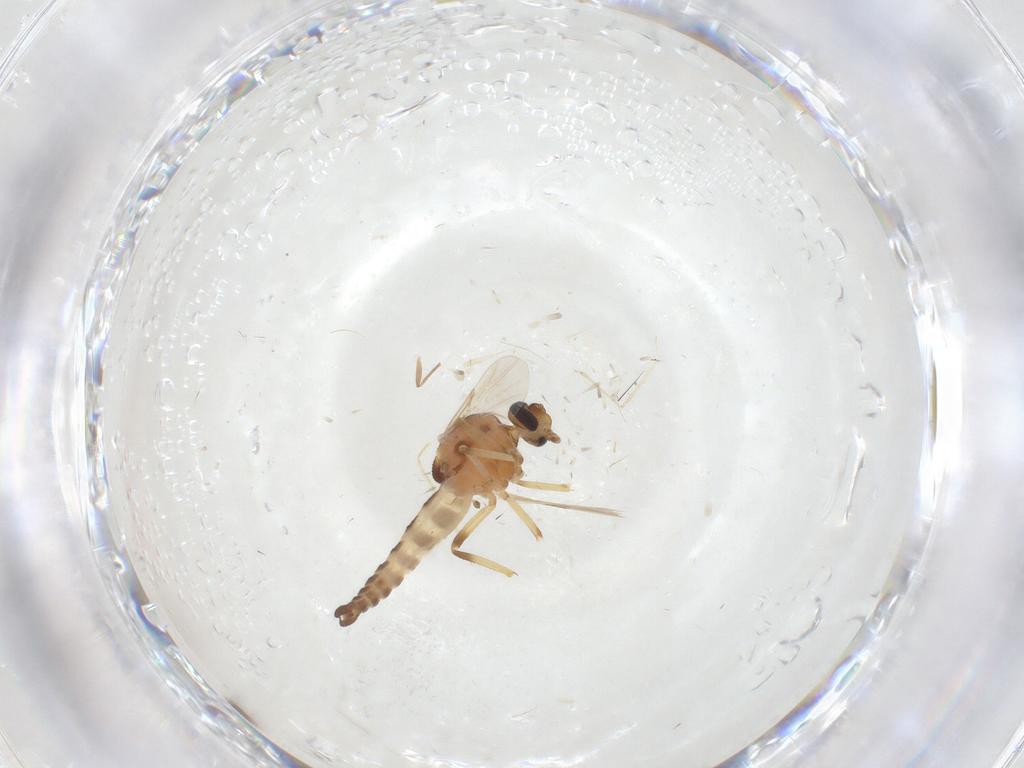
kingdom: Animalia
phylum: Arthropoda
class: Insecta
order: Diptera
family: Ceratopogonidae
